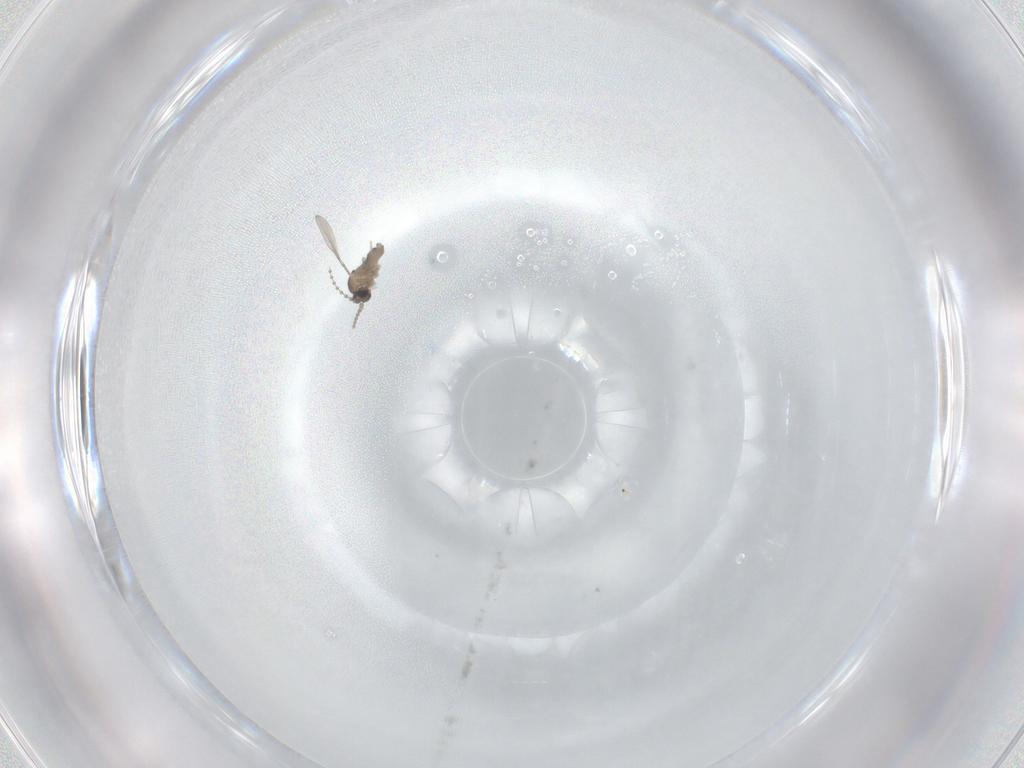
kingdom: Animalia
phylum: Arthropoda
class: Insecta
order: Diptera
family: Cecidomyiidae
